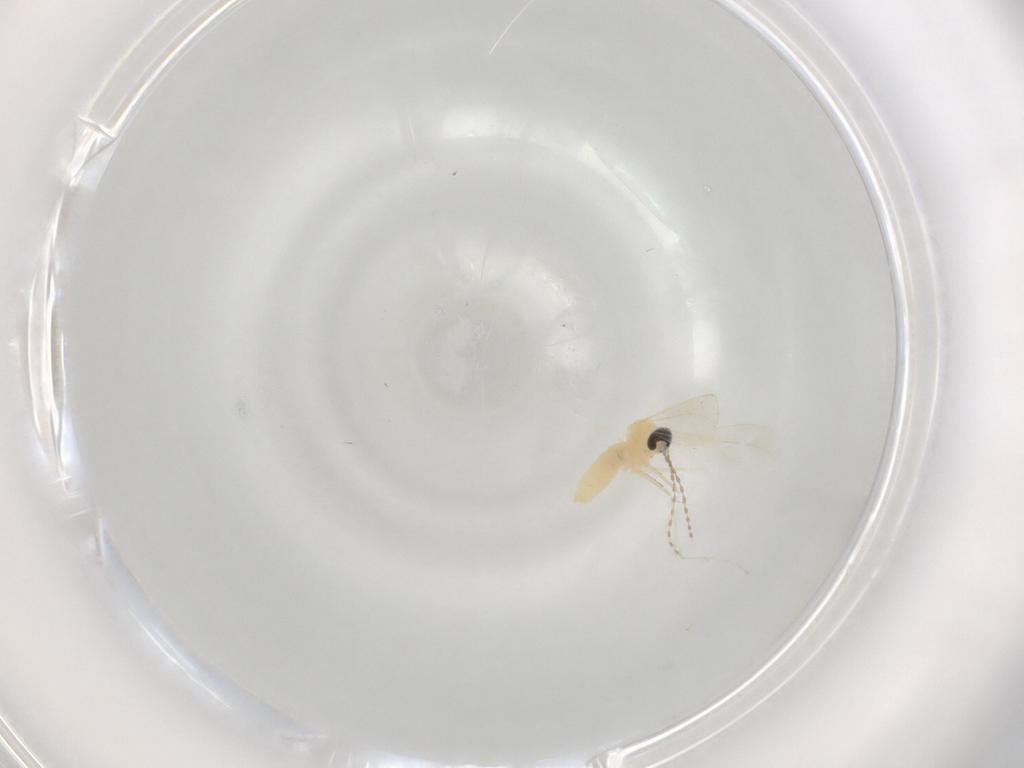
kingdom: Animalia
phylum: Arthropoda
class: Insecta
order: Diptera
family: Cecidomyiidae
